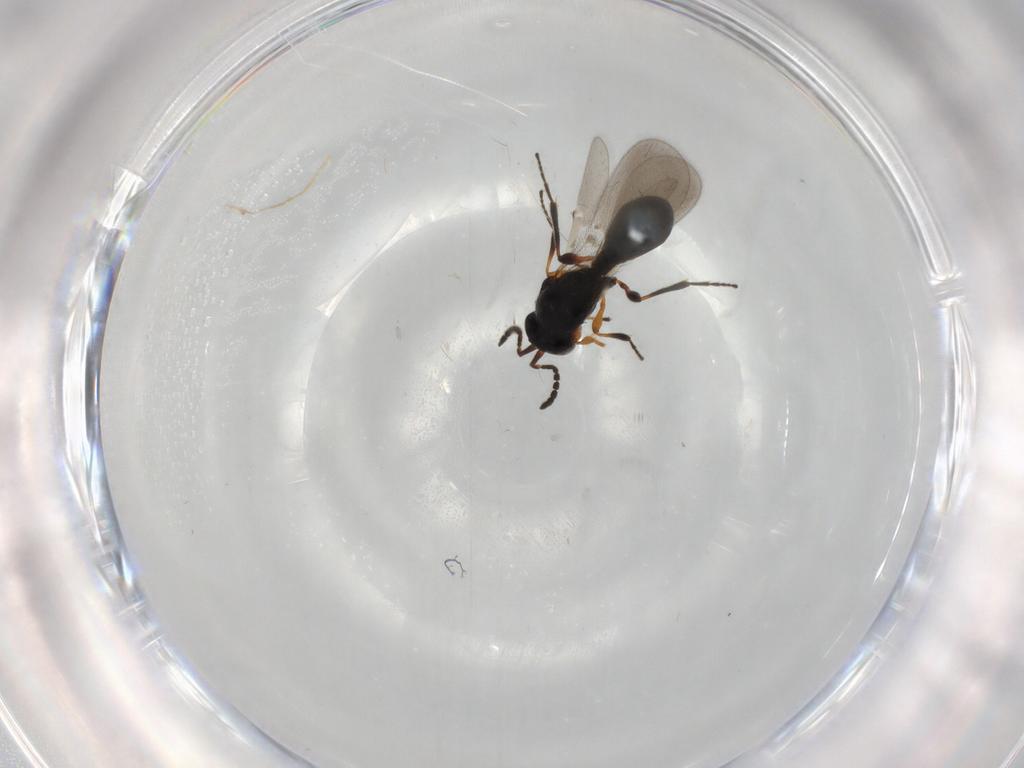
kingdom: Animalia
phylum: Arthropoda
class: Insecta
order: Hymenoptera
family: Platygastridae
